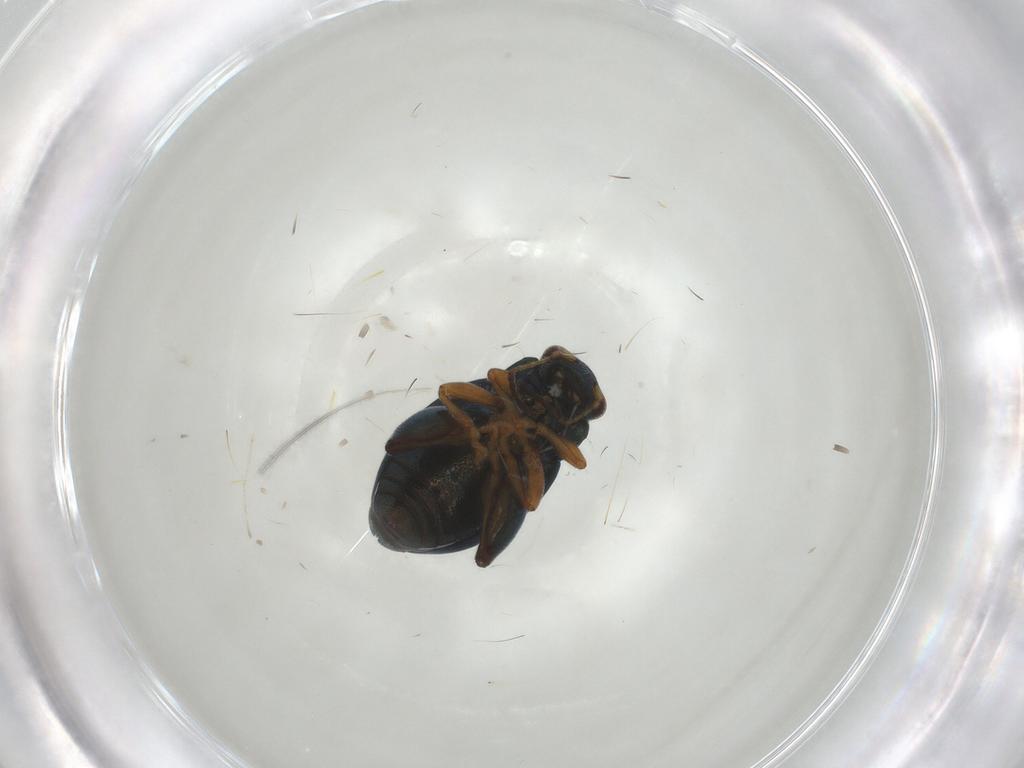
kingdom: Animalia
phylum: Arthropoda
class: Insecta
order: Coleoptera
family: Chrysomelidae
